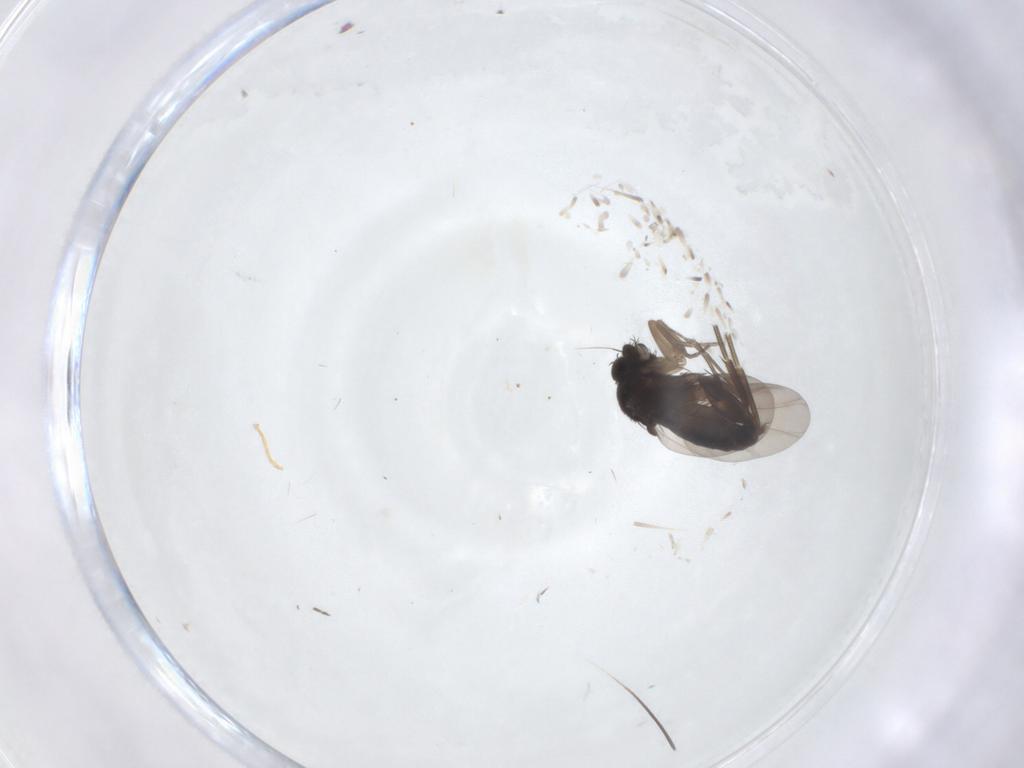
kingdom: Animalia
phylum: Arthropoda
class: Insecta
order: Diptera
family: Phoridae
